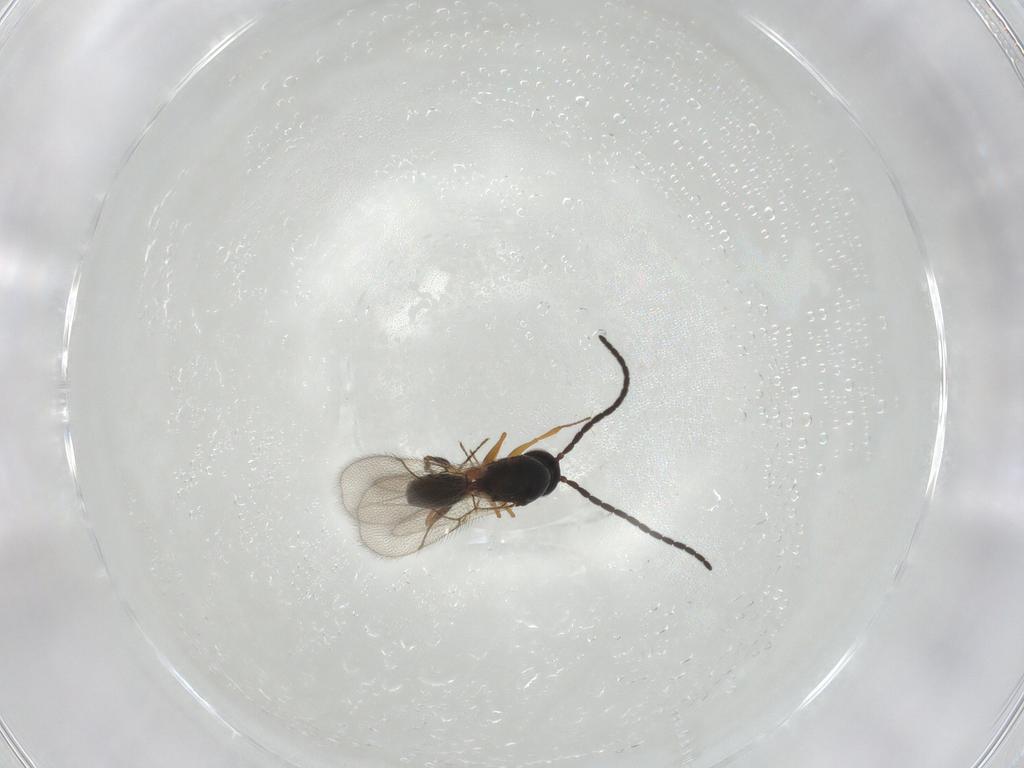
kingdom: Animalia
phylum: Arthropoda
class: Insecta
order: Hymenoptera
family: Figitidae
